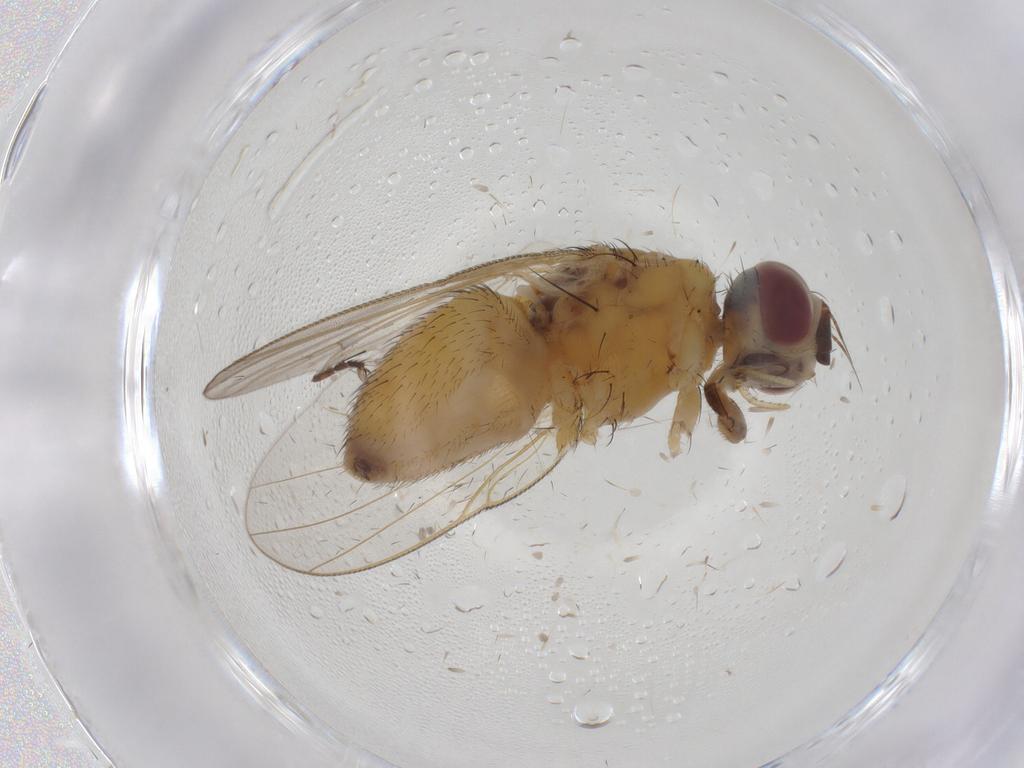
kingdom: Animalia
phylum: Arthropoda
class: Insecta
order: Diptera
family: Muscidae
